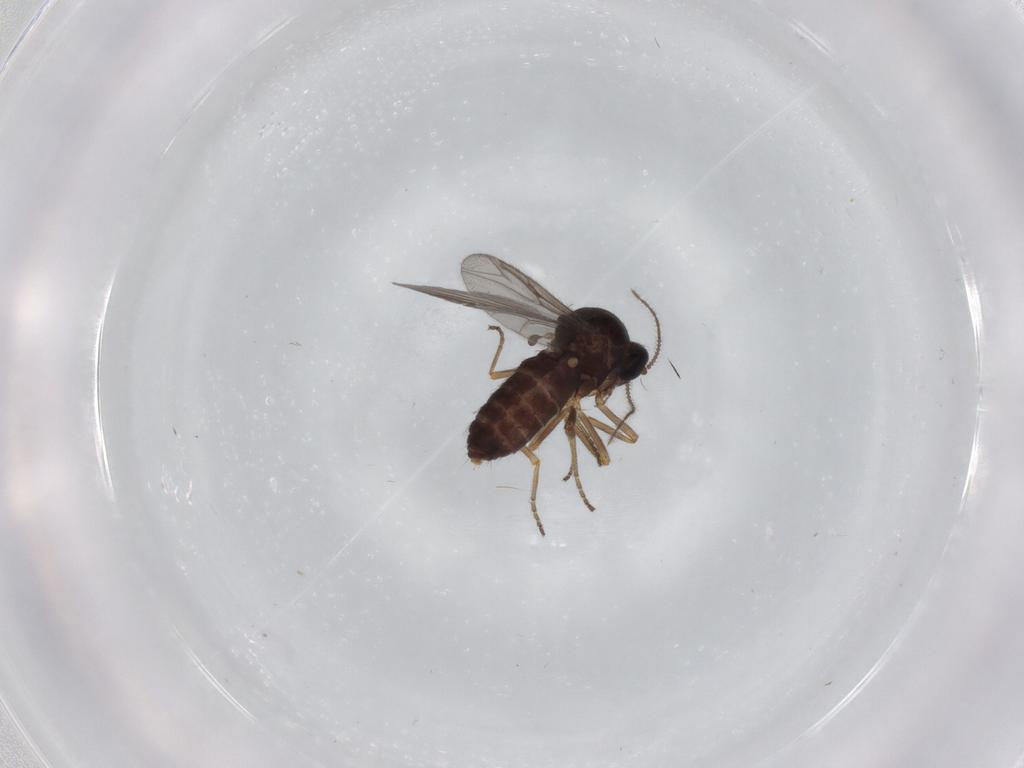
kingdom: Animalia
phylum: Arthropoda
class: Insecta
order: Diptera
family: Ceratopogonidae
